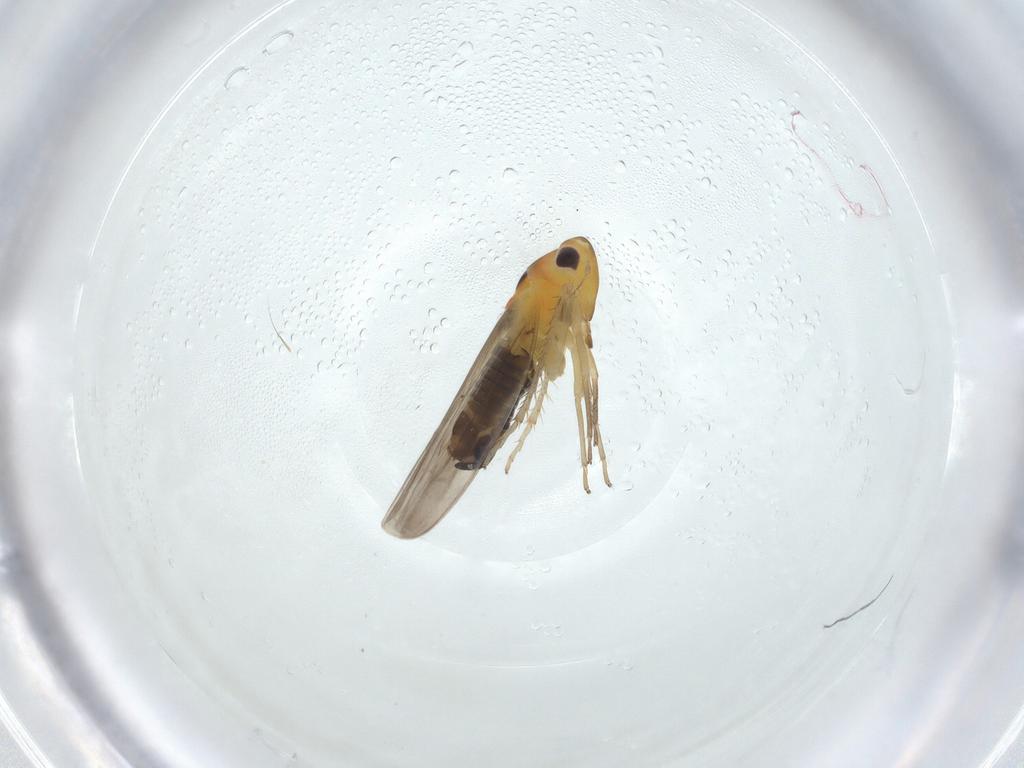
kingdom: Animalia
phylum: Arthropoda
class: Insecta
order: Hemiptera
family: Cicadellidae
